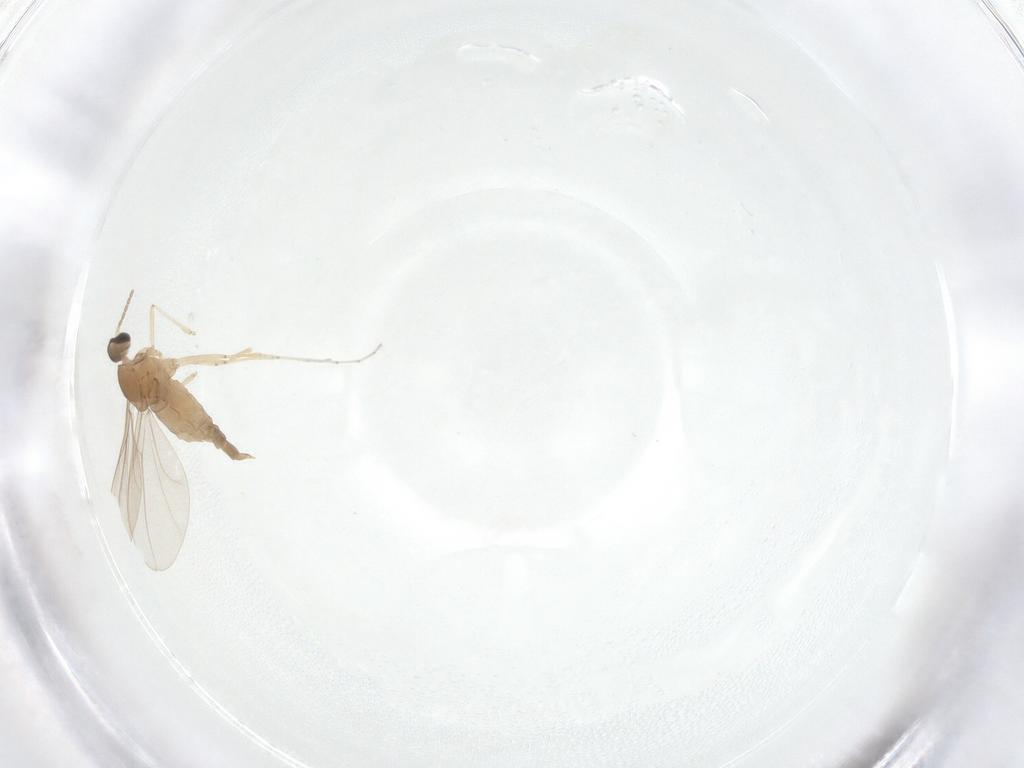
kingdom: Animalia
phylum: Arthropoda
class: Insecta
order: Diptera
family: Cecidomyiidae
